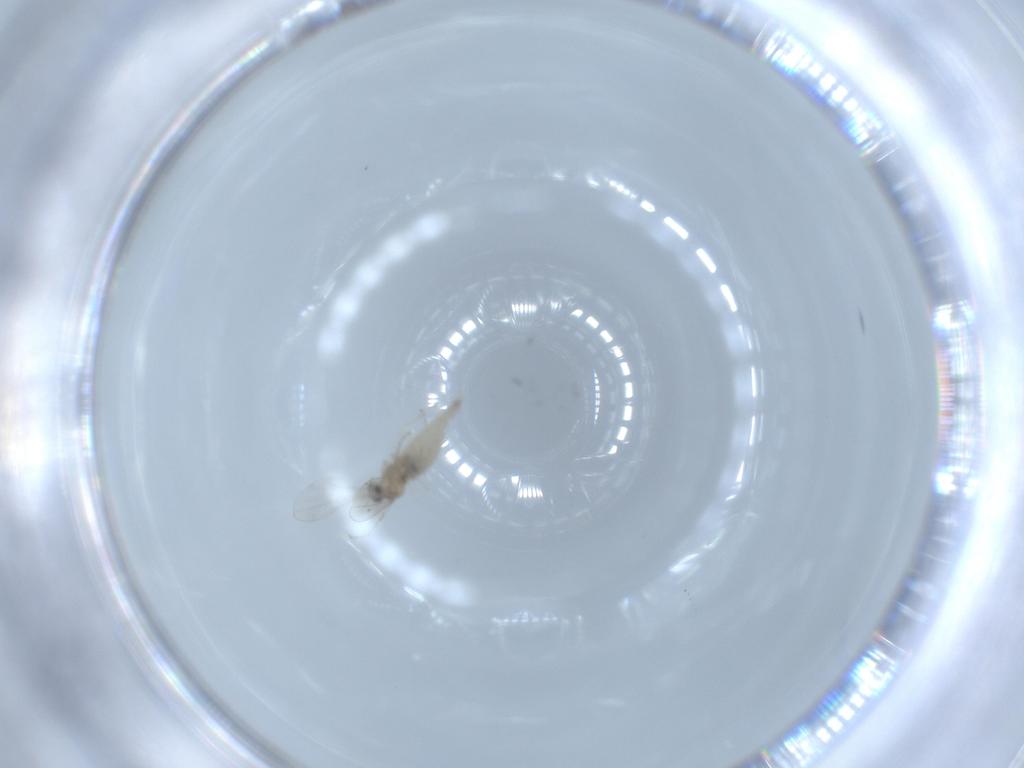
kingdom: Animalia
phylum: Arthropoda
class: Insecta
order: Diptera
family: Cecidomyiidae
